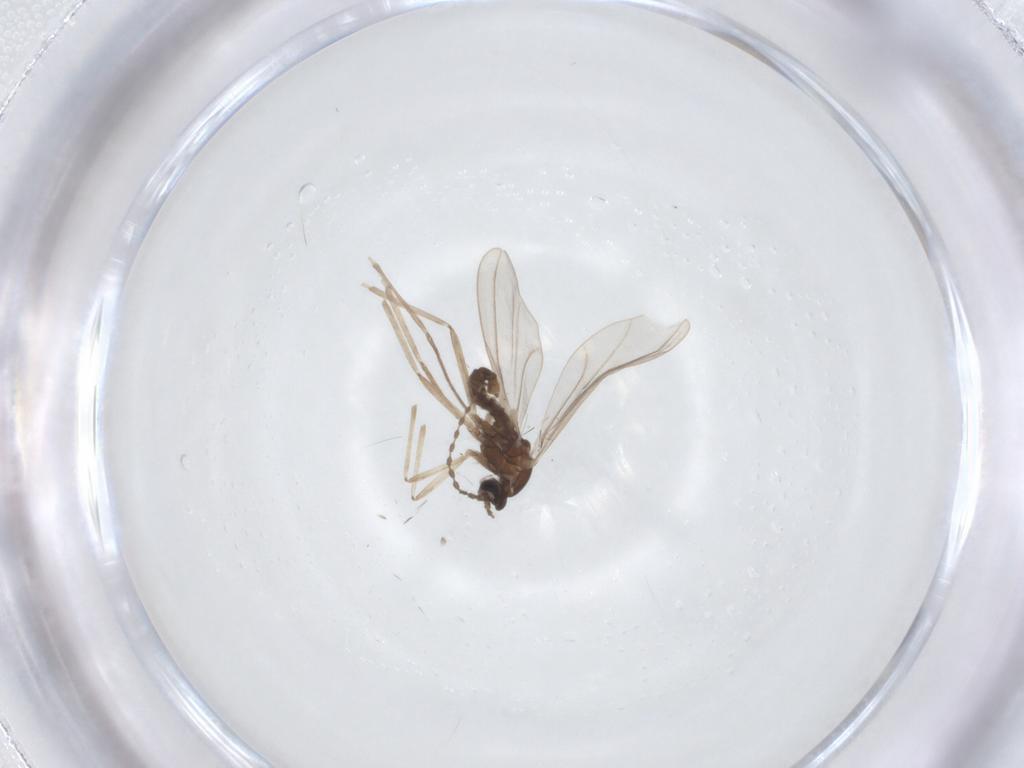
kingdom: Animalia
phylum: Arthropoda
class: Insecta
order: Diptera
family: Cecidomyiidae
